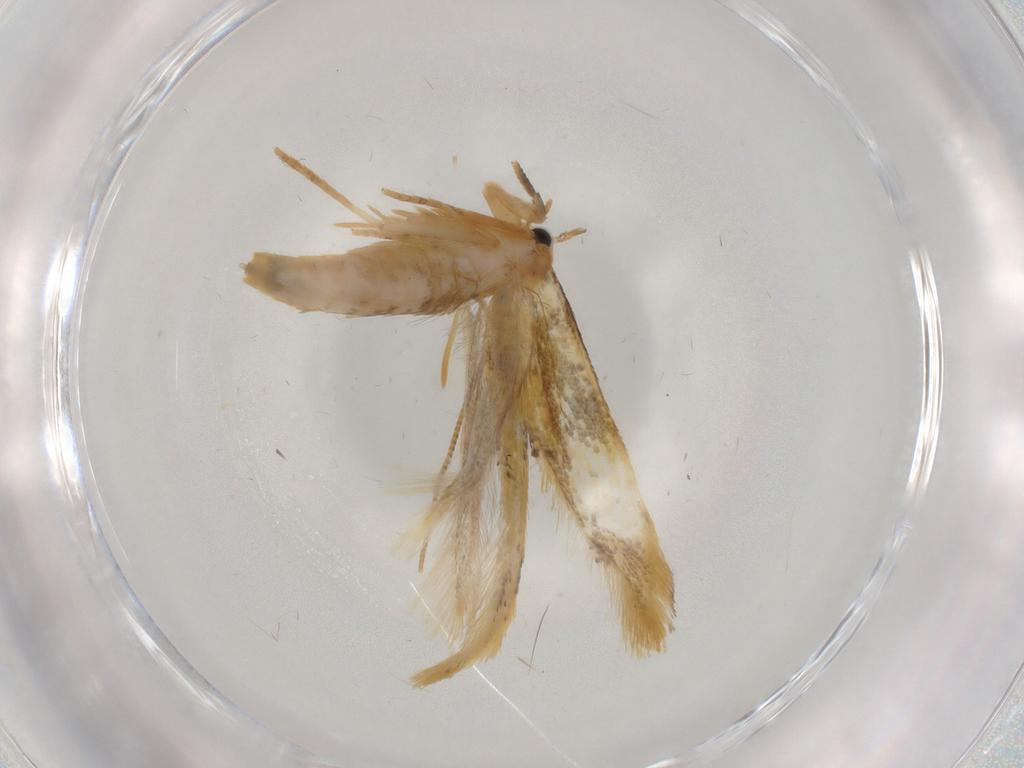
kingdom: Animalia
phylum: Arthropoda
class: Insecta
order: Lepidoptera
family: Tineidae
